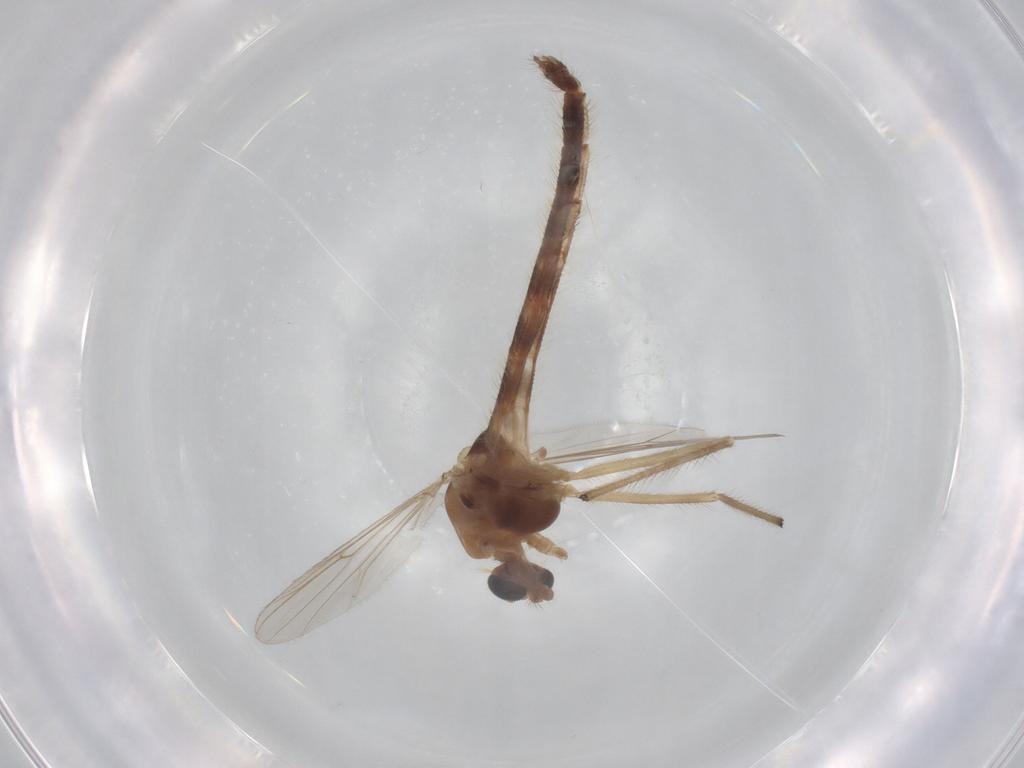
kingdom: Animalia
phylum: Arthropoda
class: Insecta
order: Diptera
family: Chironomidae
